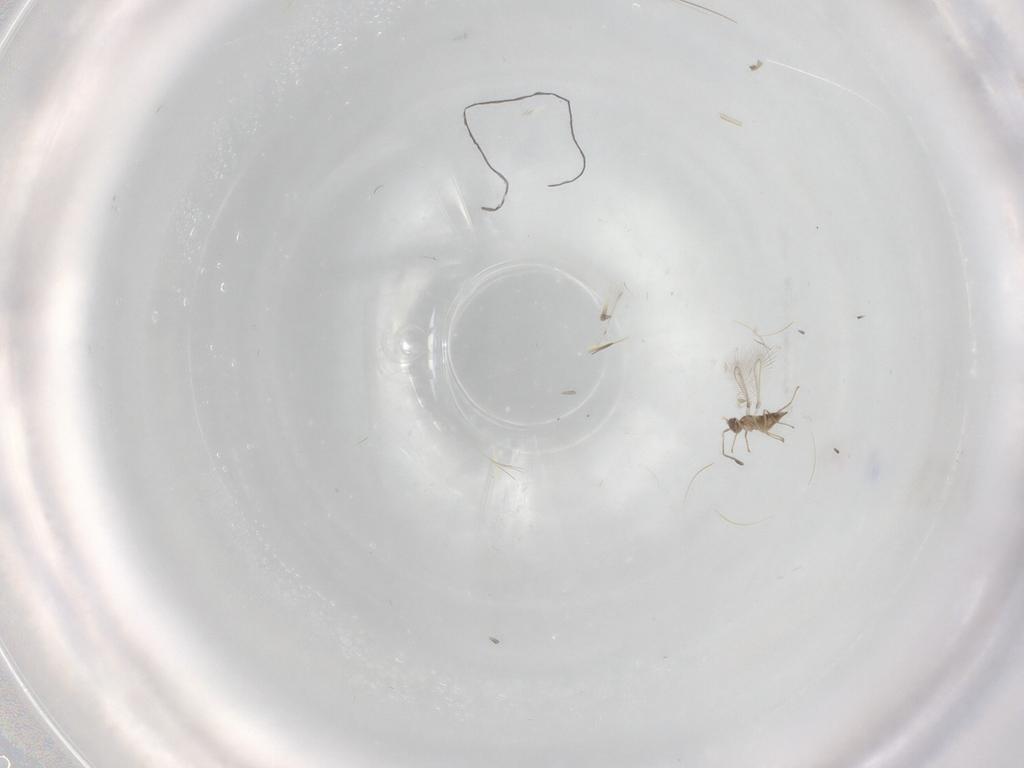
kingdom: Animalia
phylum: Arthropoda
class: Insecta
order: Hymenoptera
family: Mymaridae
